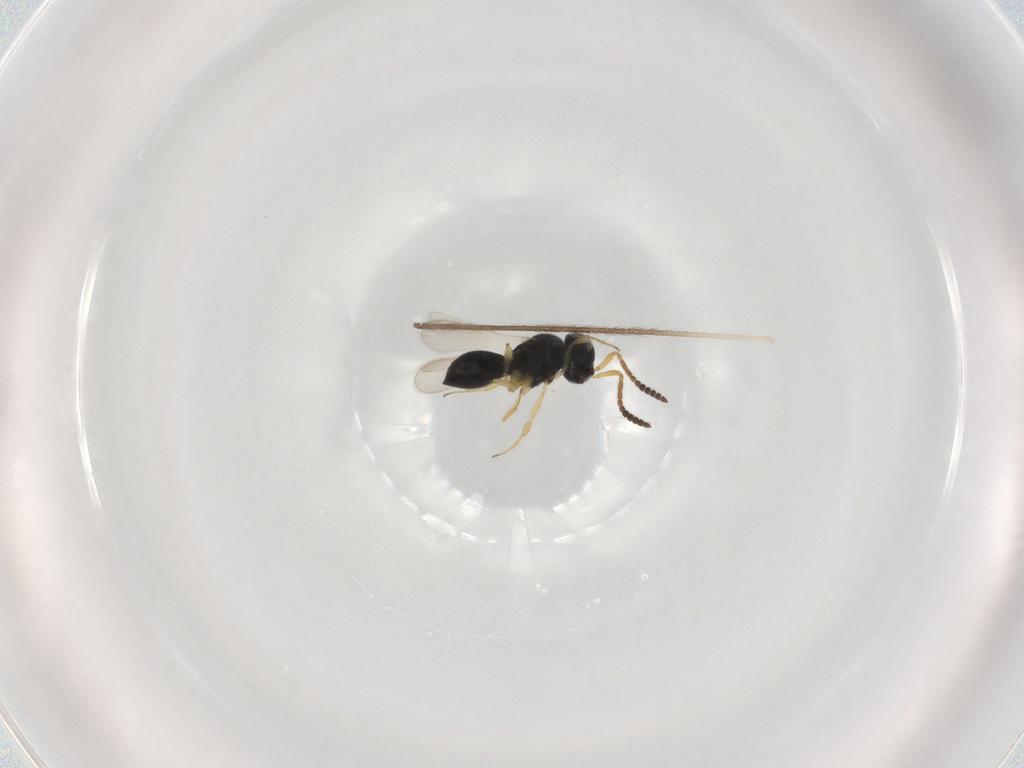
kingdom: Animalia
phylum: Arthropoda
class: Insecta
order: Hymenoptera
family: Scelionidae
